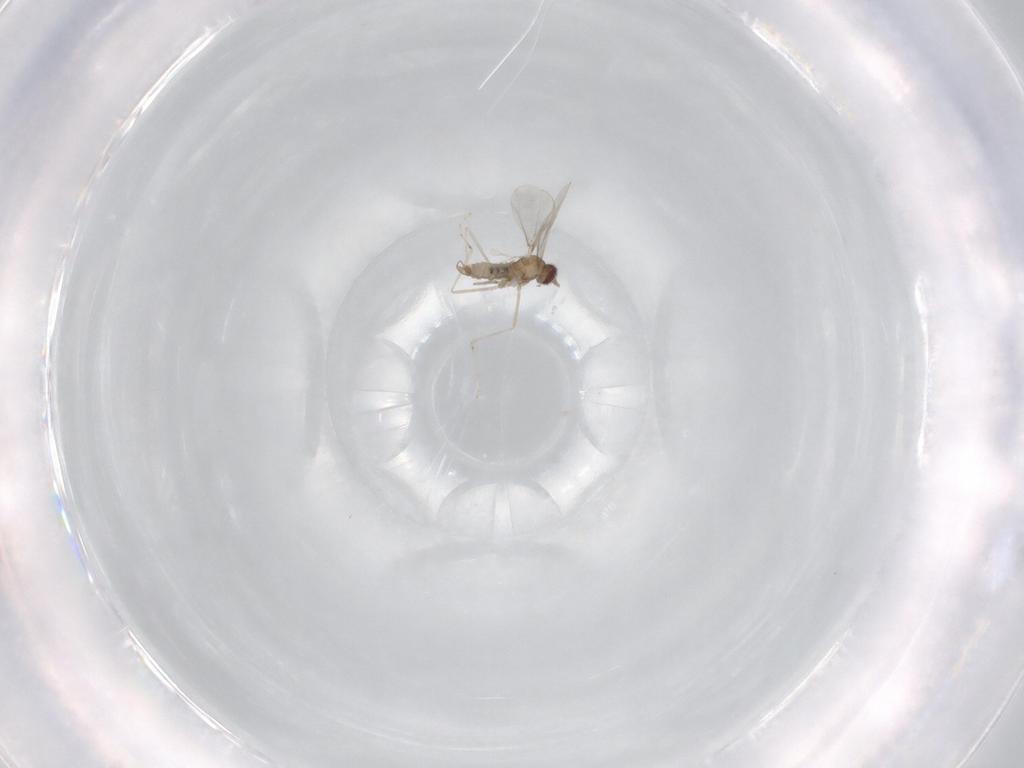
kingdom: Animalia
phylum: Arthropoda
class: Insecta
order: Diptera
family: Cecidomyiidae
